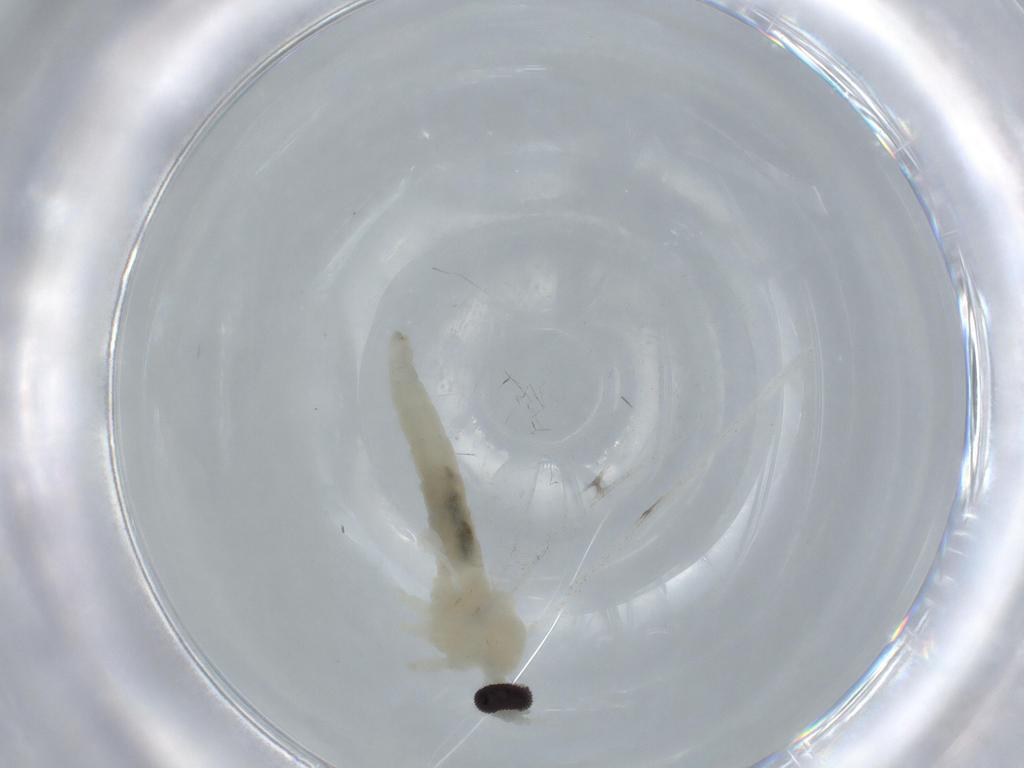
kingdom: Animalia
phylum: Arthropoda
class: Insecta
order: Diptera
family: Cecidomyiidae
